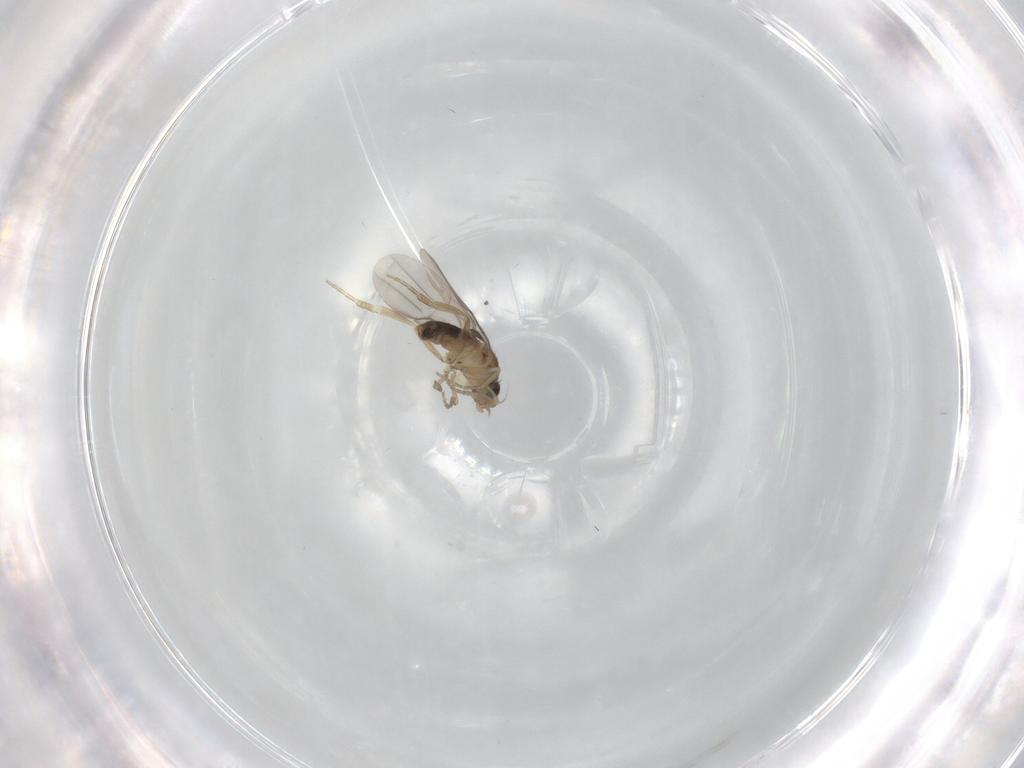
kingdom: Animalia
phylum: Arthropoda
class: Insecta
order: Diptera
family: Phoridae
